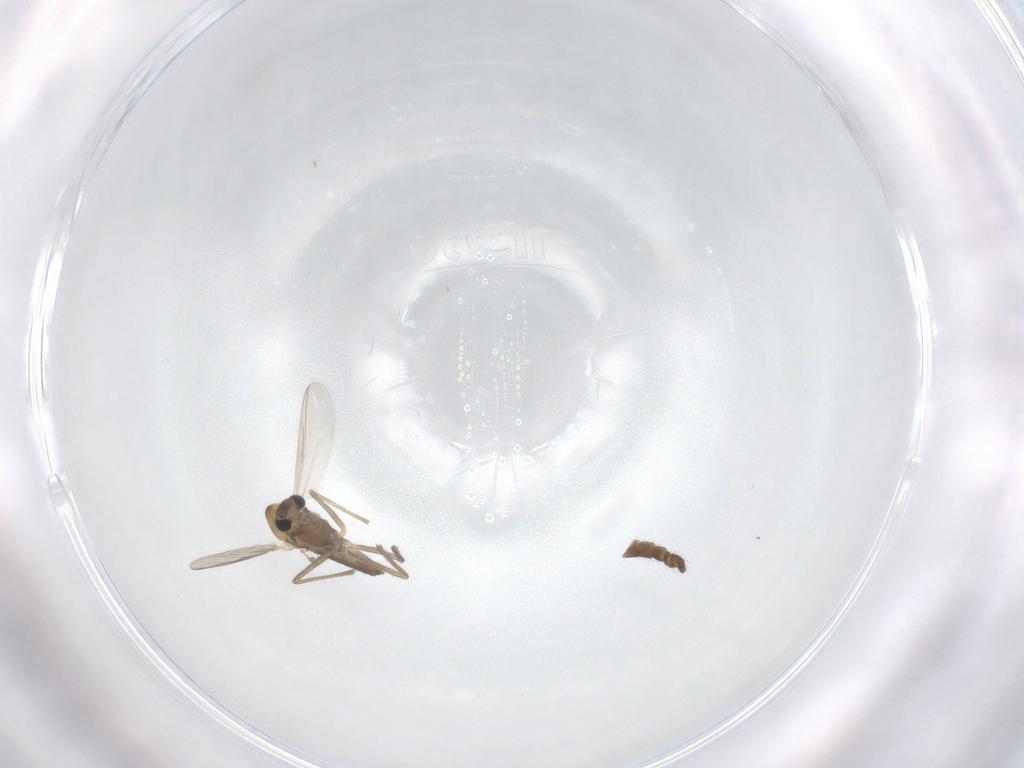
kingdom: Animalia
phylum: Arthropoda
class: Insecta
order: Diptera
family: Chironomidae
